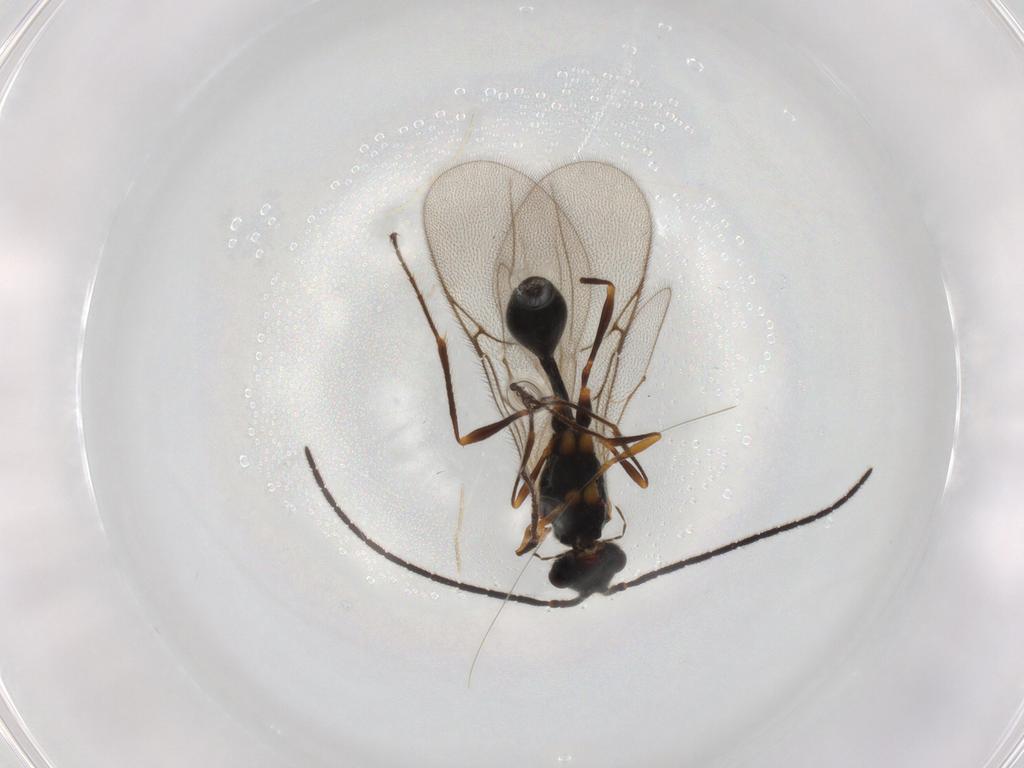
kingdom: Animalia
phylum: Arthropoda
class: Insecta
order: Hymenoptera
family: Diapriidae
